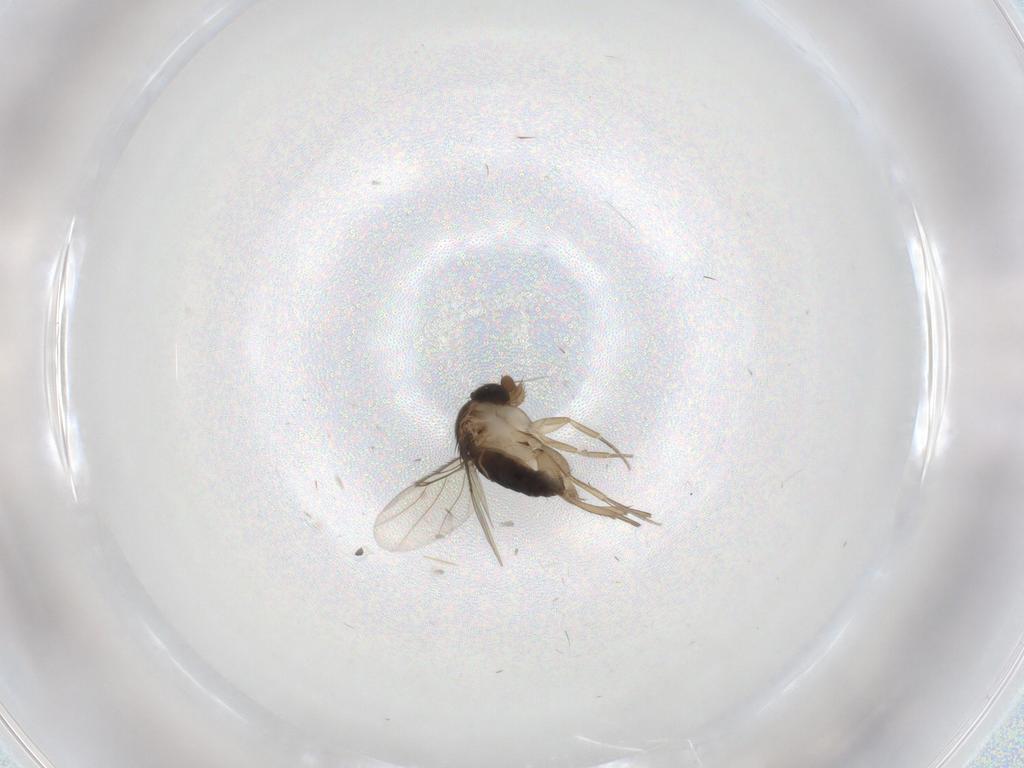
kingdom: Animalia
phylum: Arthropoda
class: Insecta
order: Diptera
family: Phoridae
